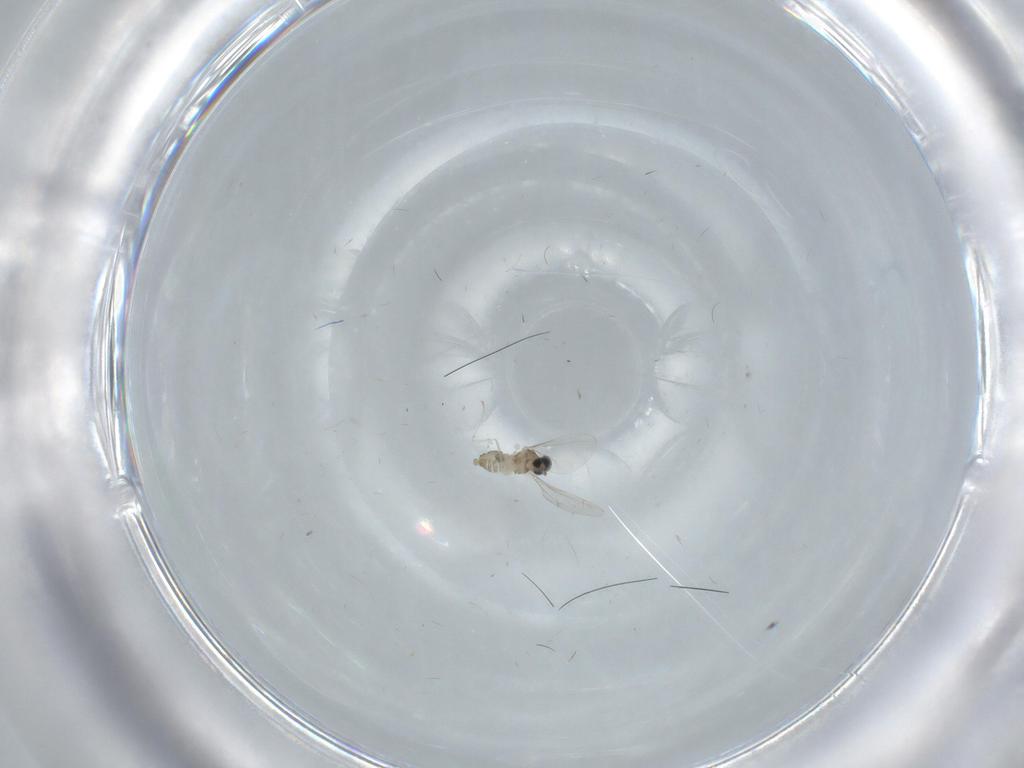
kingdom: Animalia
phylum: Arthropoda
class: Insecta
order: Diptera
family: Cecidomyiidae
